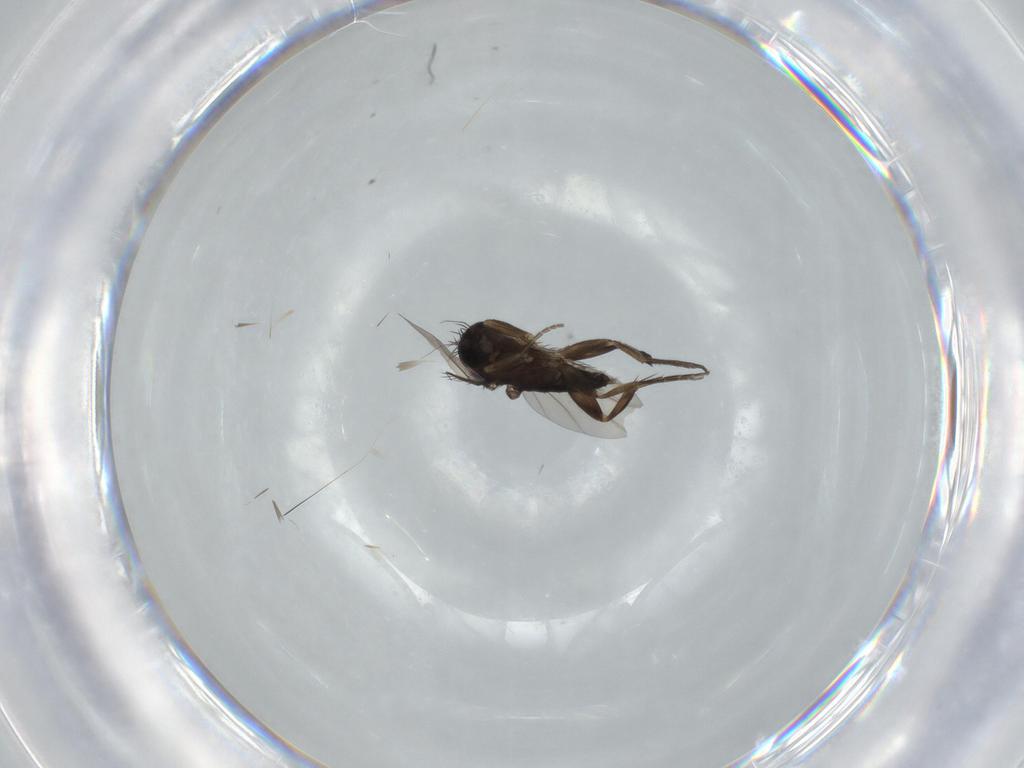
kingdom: Animalia
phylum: Arthropoda
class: Insecta
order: Diptera
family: Phoridae
